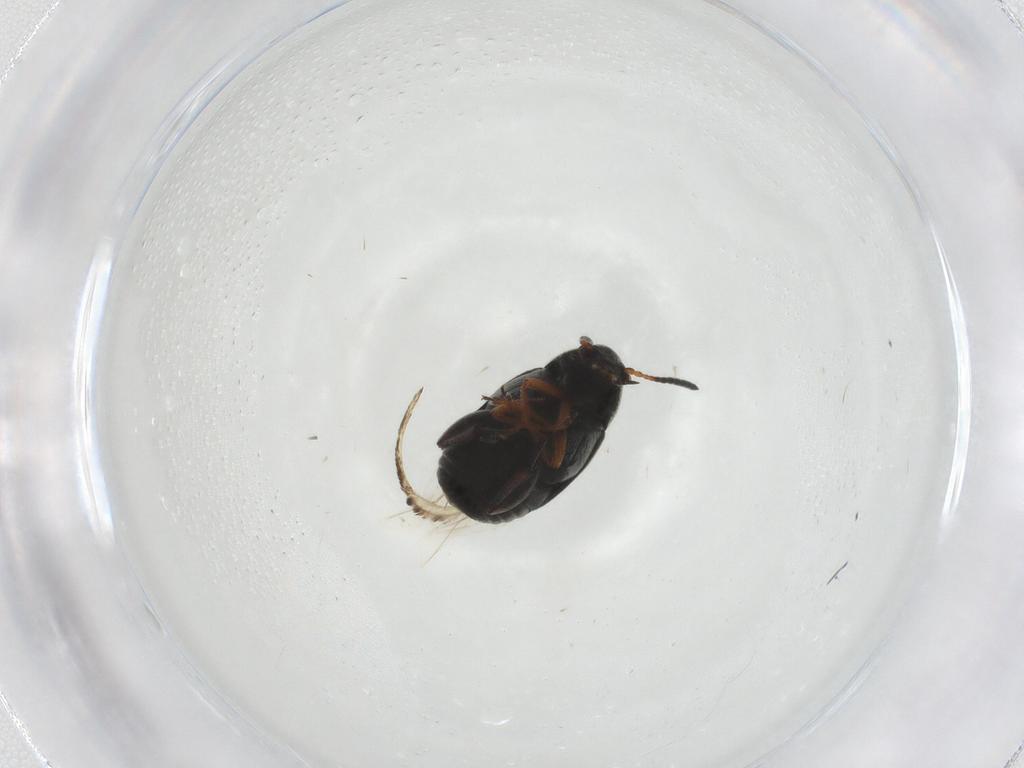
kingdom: Animalia
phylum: Arthropoda
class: Insecta
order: Coleoptera
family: Chrysomelidae
